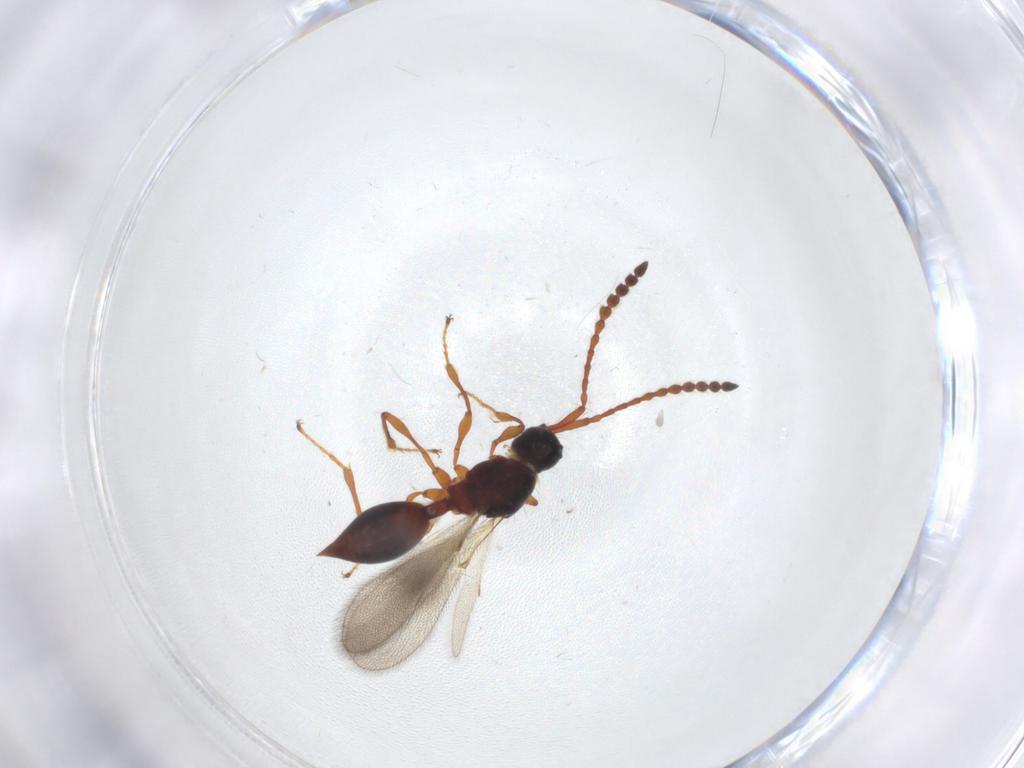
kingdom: Animalia
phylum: Arthropoda
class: Insecta
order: Hymenoptera
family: Diapriidae
